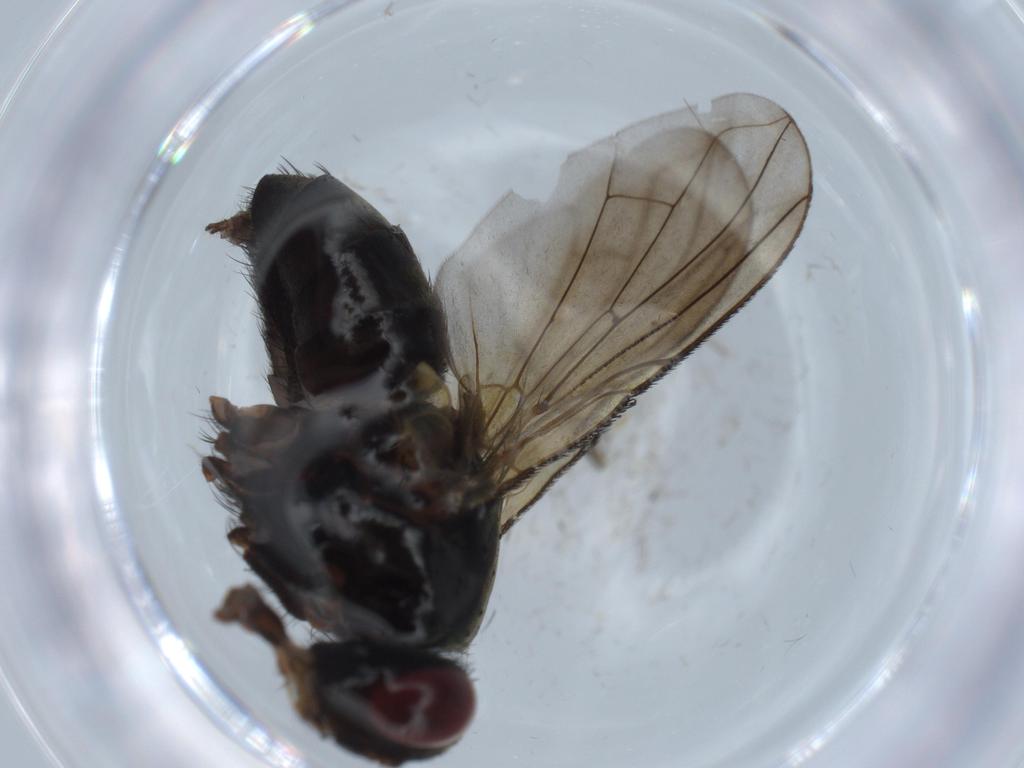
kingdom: Animalia
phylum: Arthropoda
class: Insecta
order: Diptera
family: Calliphoridae
